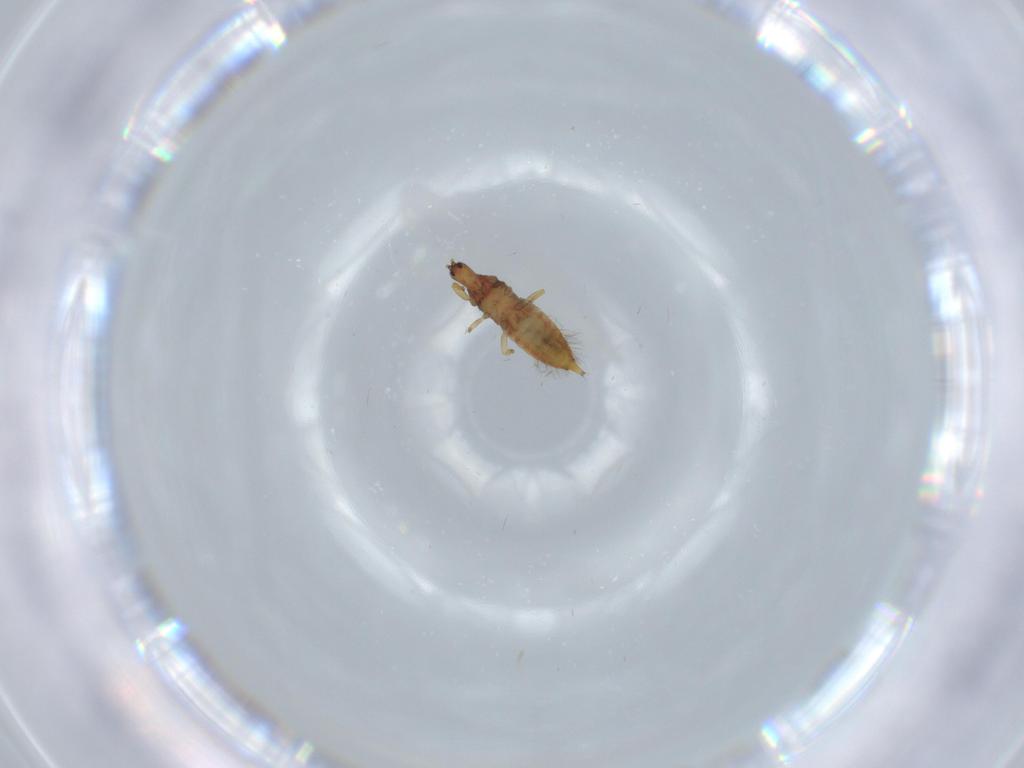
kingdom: Animalia
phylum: Arthropoda
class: Insecta
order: Thysanoptera
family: Phlaeothripidae
